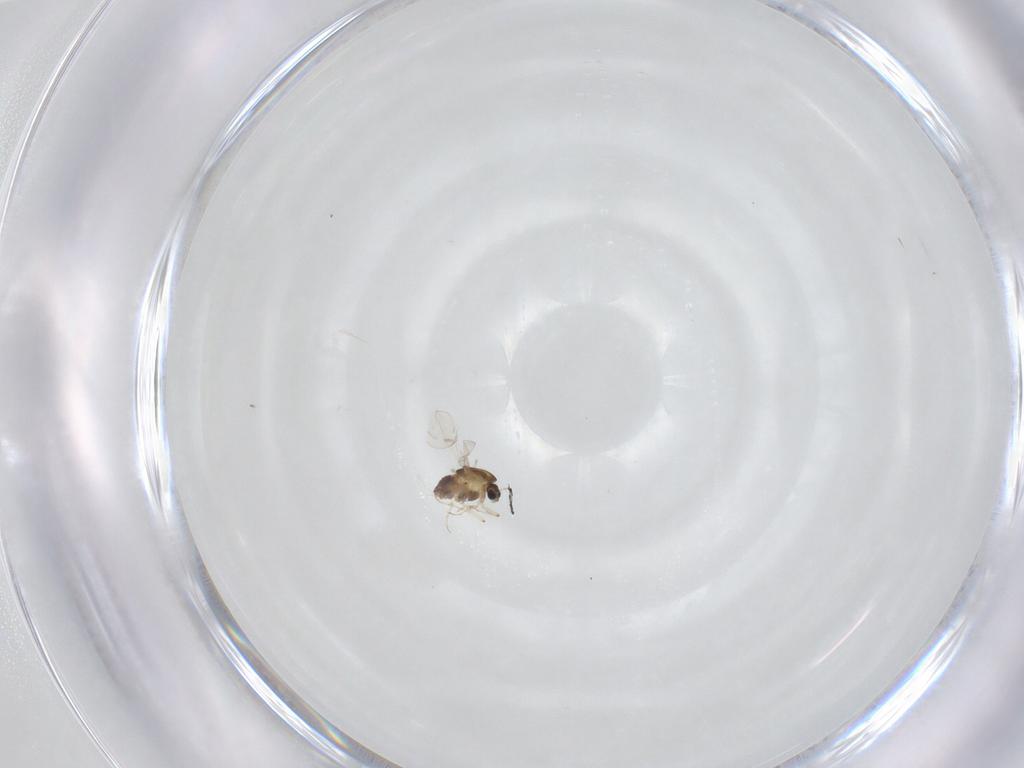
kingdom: Animalia
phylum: Arthropoda
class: Insecta
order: Diptera
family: Chironomidae
